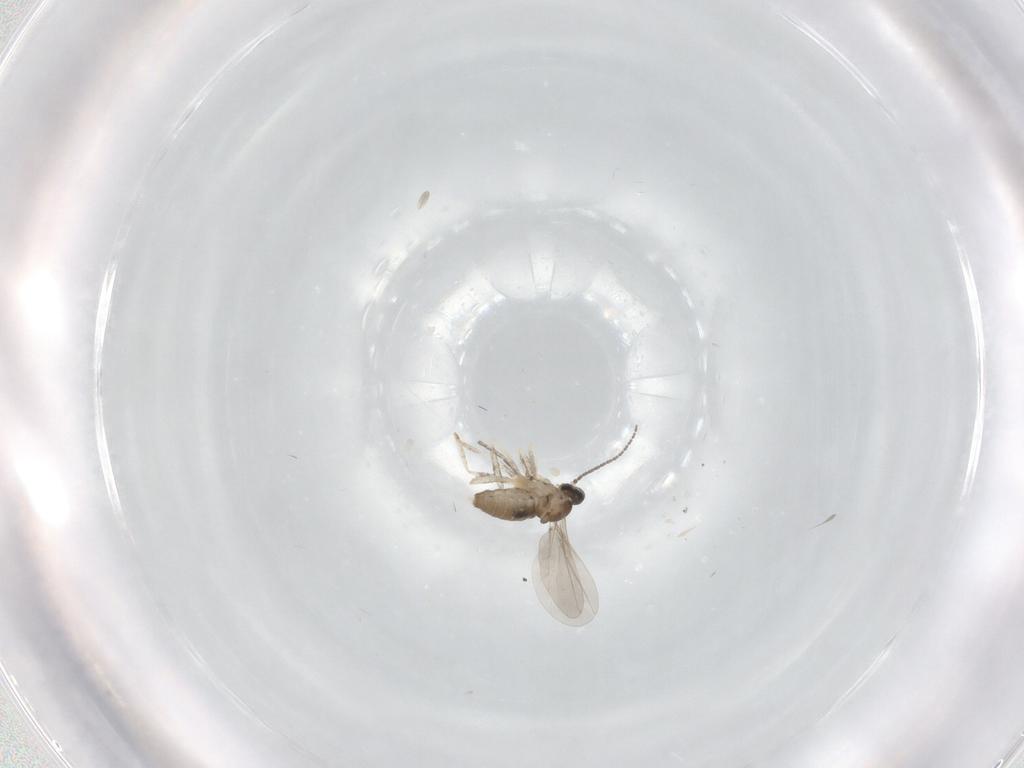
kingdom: Animalia
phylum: Arthropoda
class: Insecta
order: Diptera
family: Cecidomyiidae
